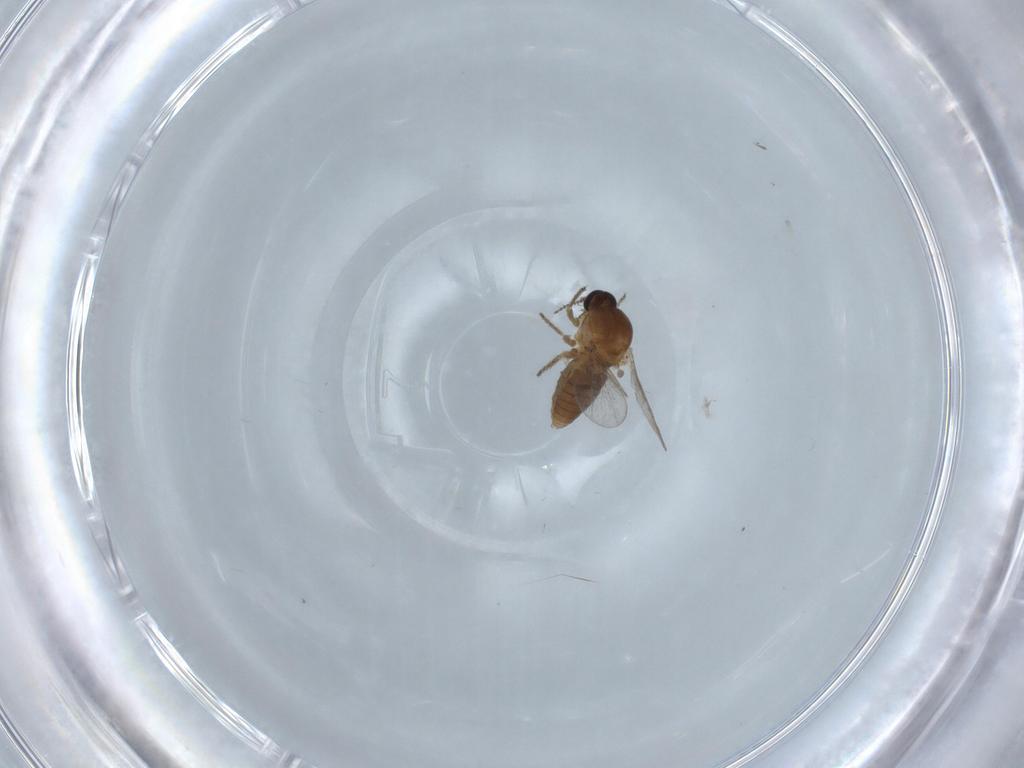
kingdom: Animalia
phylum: Arthropoda
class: Insecta
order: Diptera
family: Ceratopogonidae
